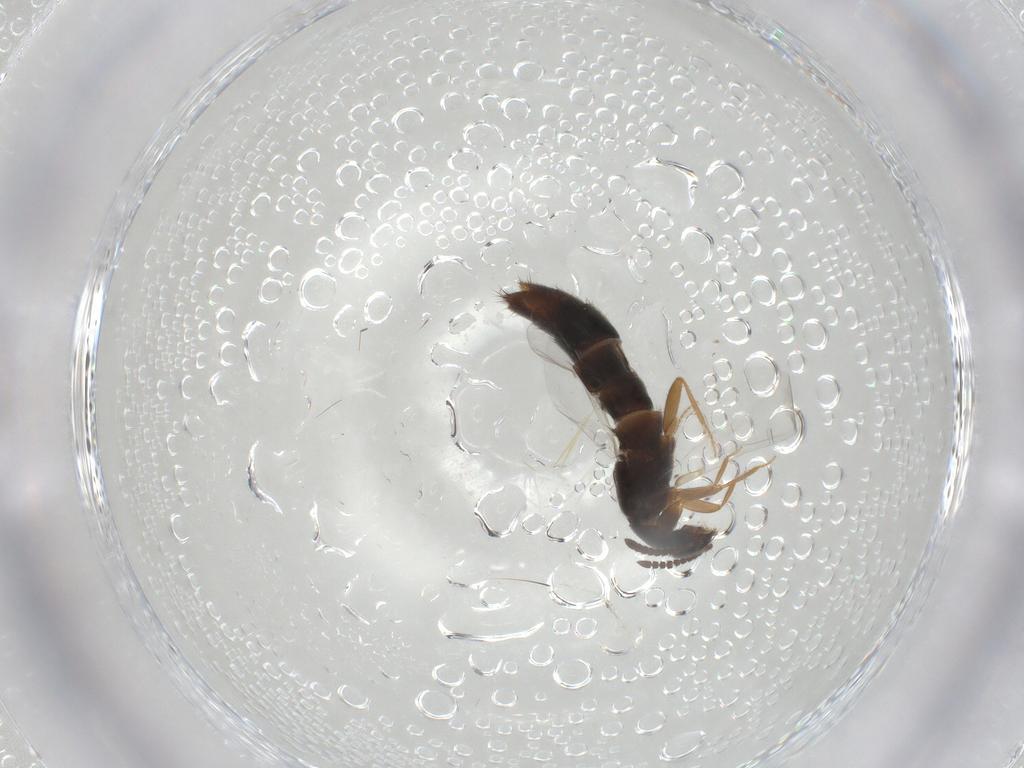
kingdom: Animalia
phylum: Arthropoda
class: Insecta
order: Coleoptera
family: Staphylinidae
